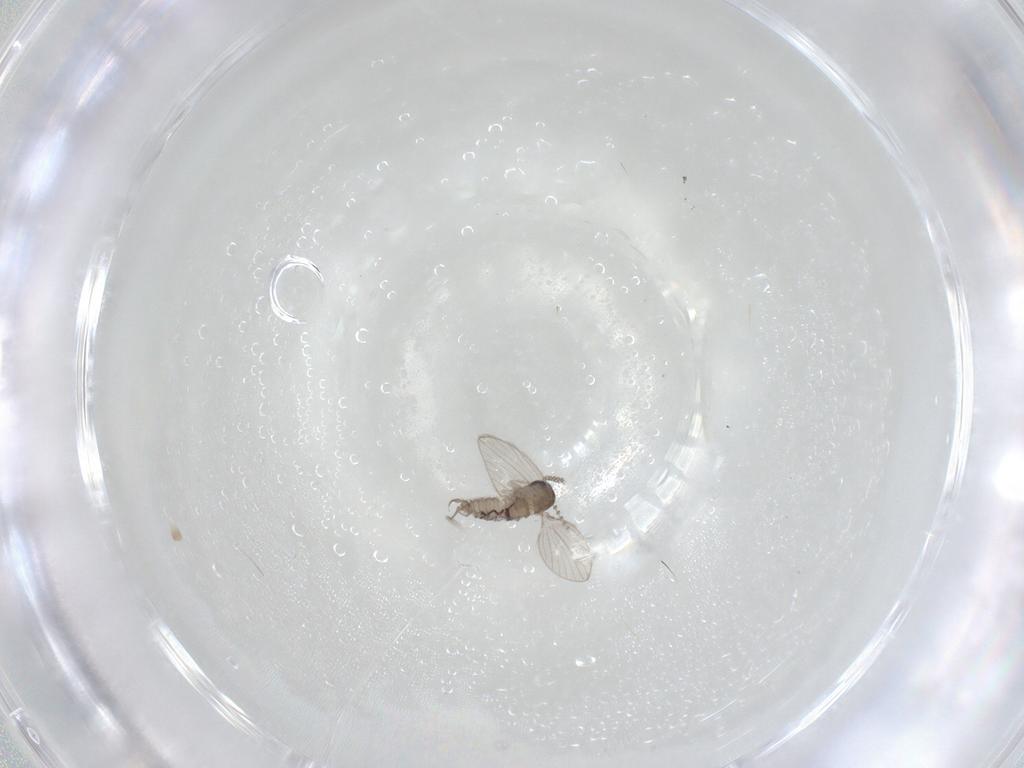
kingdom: Animalia
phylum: Arthropoda
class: Insecta
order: Diptera
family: Psychodidae
